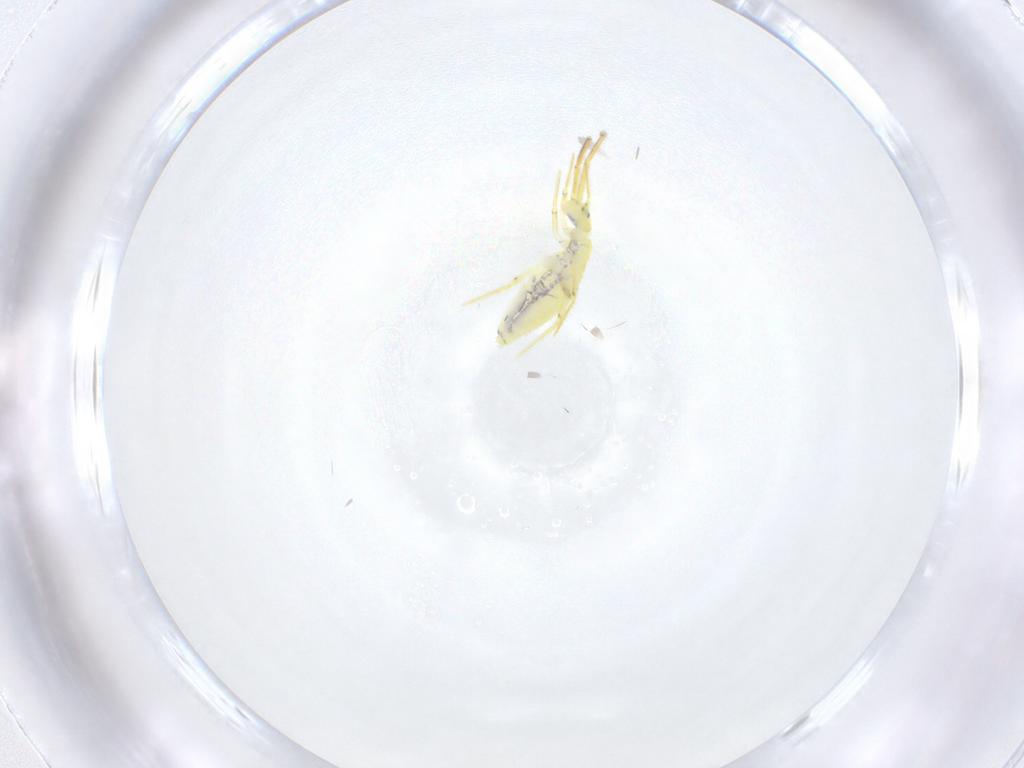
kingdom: Animalia
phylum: Arthropoda
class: Collembola
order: Entomobryomorpha
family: Entomobryidae
